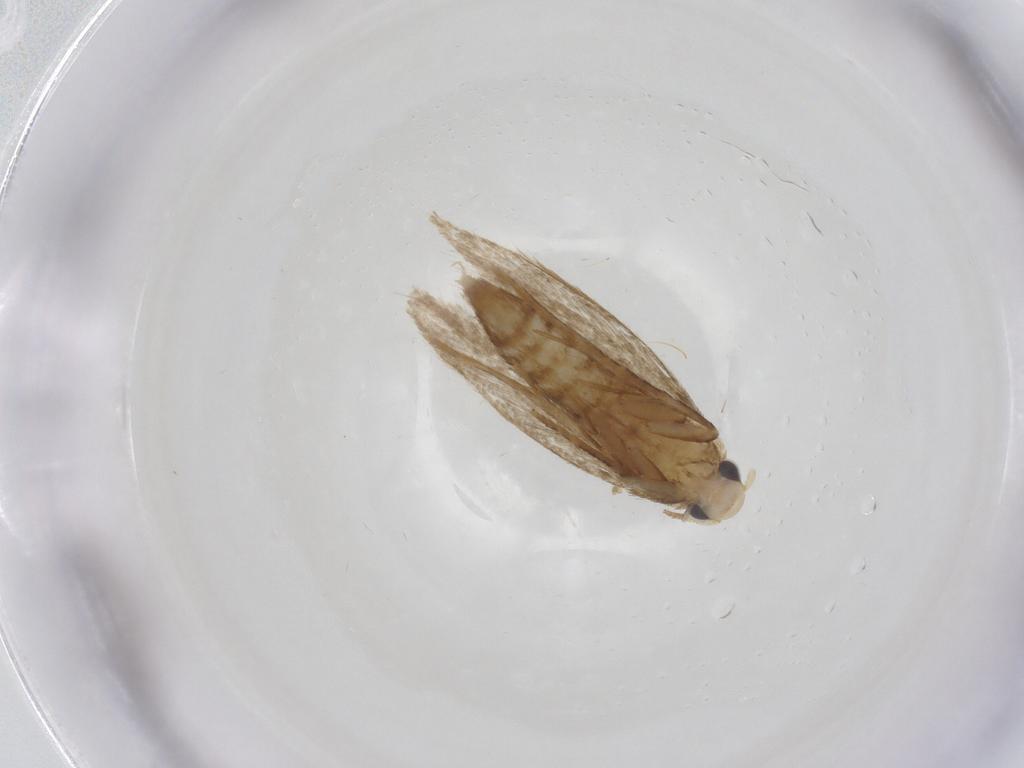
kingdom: Animalia
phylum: Arthropoda
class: Insecta
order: Lepidoptera
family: Tineidae
